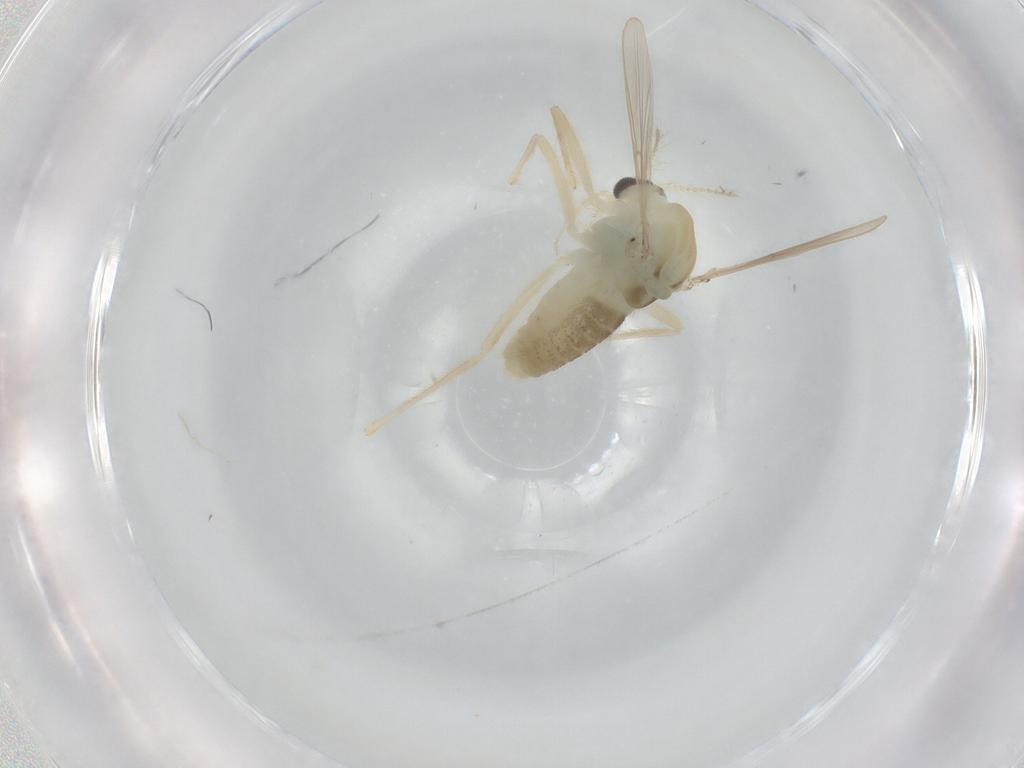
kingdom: Animalia
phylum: Arthropoda
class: Insecta
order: Diptera
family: Chironomidae
